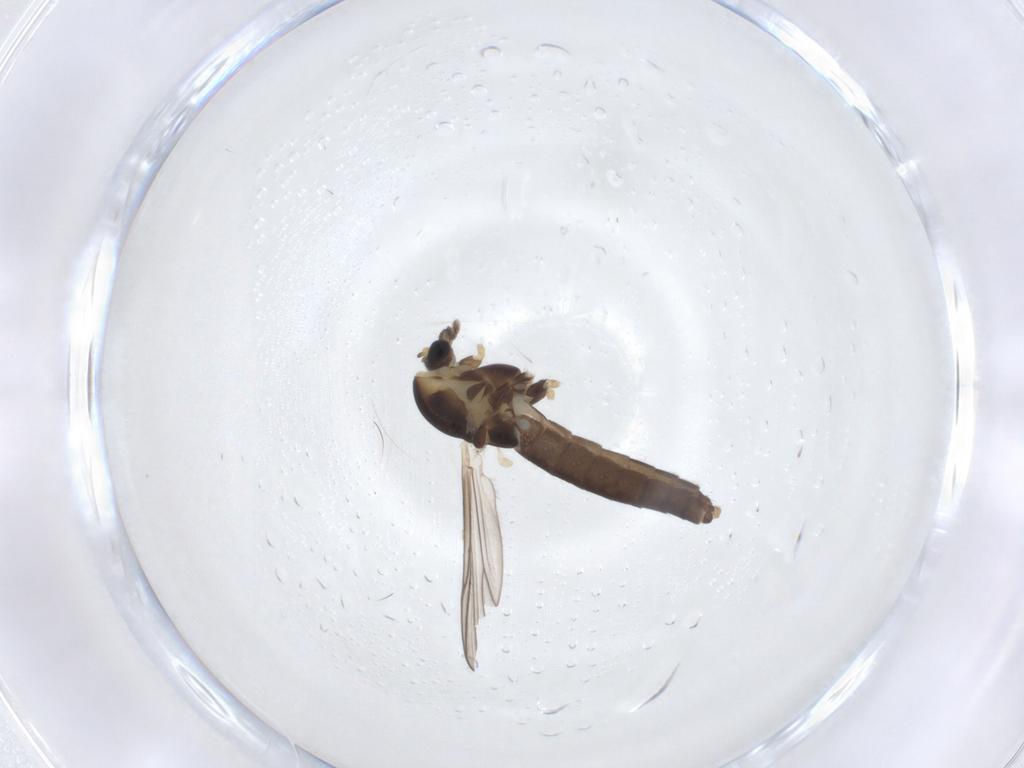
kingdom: Animalia
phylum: Arthropoda
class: Insecta
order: Diptera
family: Chironomidae
